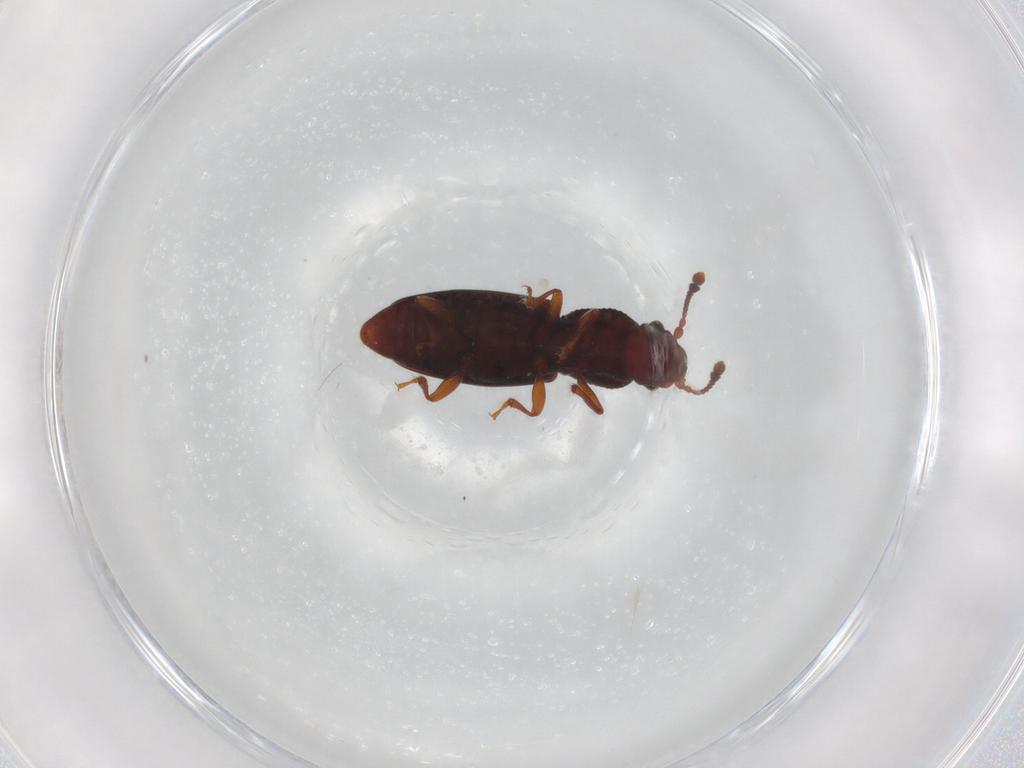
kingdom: Animalia
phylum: Arthropoda
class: Insecta
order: Coleoptera
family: Monotomidae
